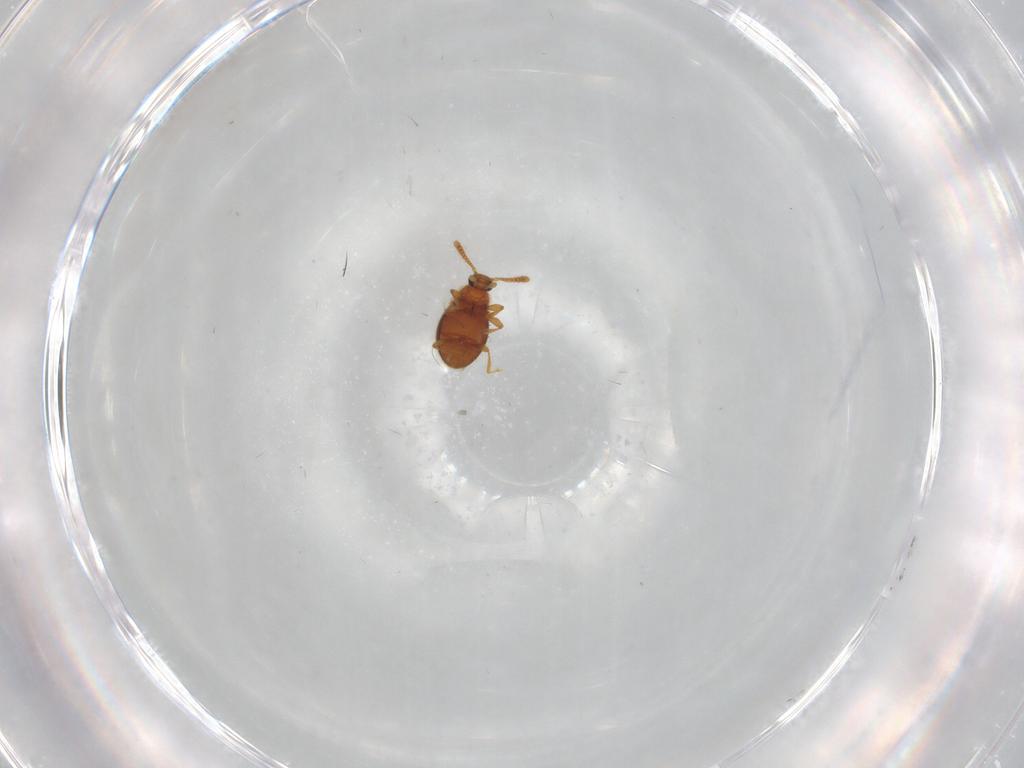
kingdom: Animalia
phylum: Arthropoda
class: Insecta
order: Coleoptera
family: Staphylinidae
